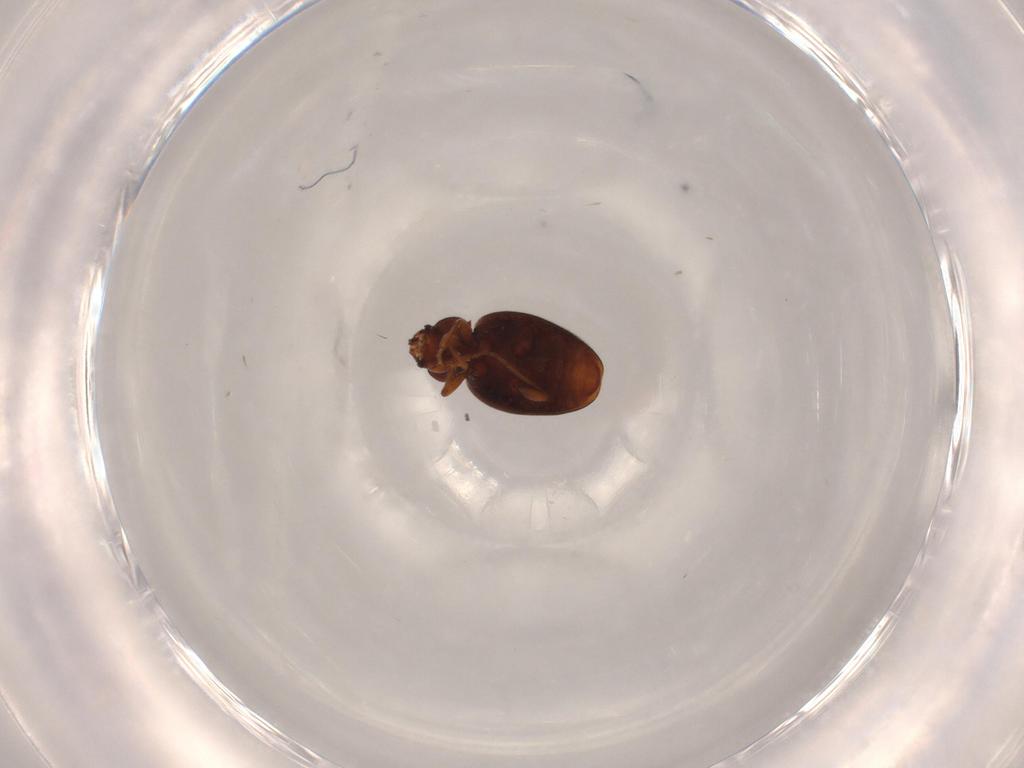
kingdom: Animalia
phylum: Arthropoda
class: Insecta
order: Coleoptera
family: Latridiidae
